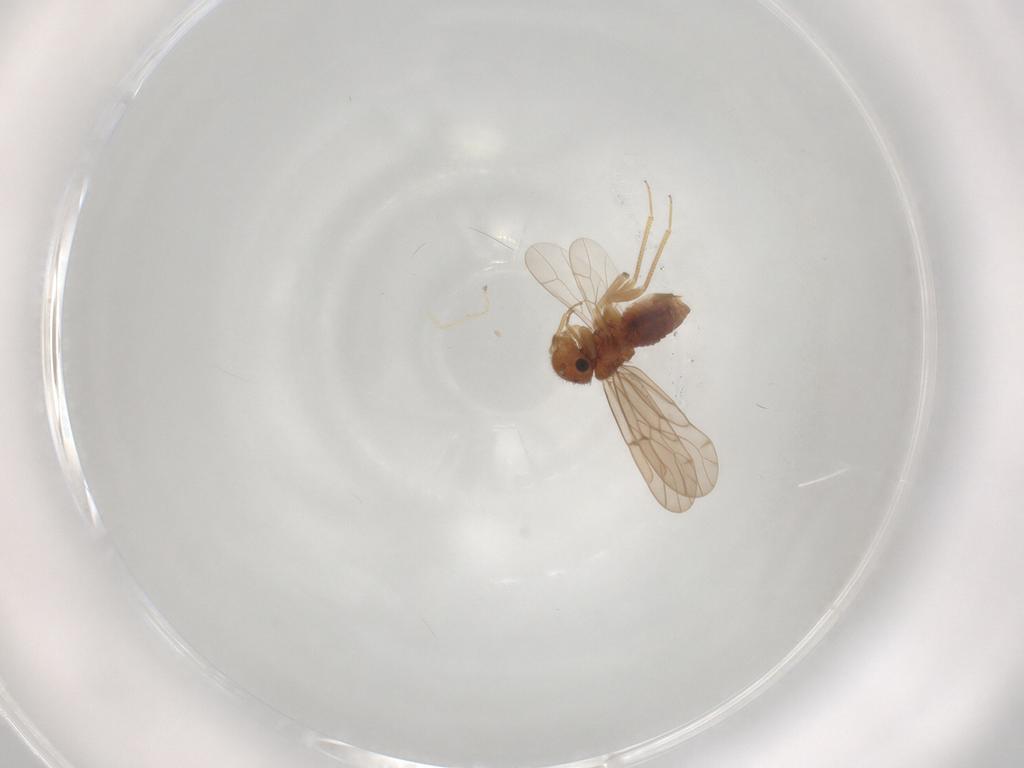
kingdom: Animalia
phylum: Arthropoda
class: Insecta
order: Psocodea
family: Ectopsocidae
